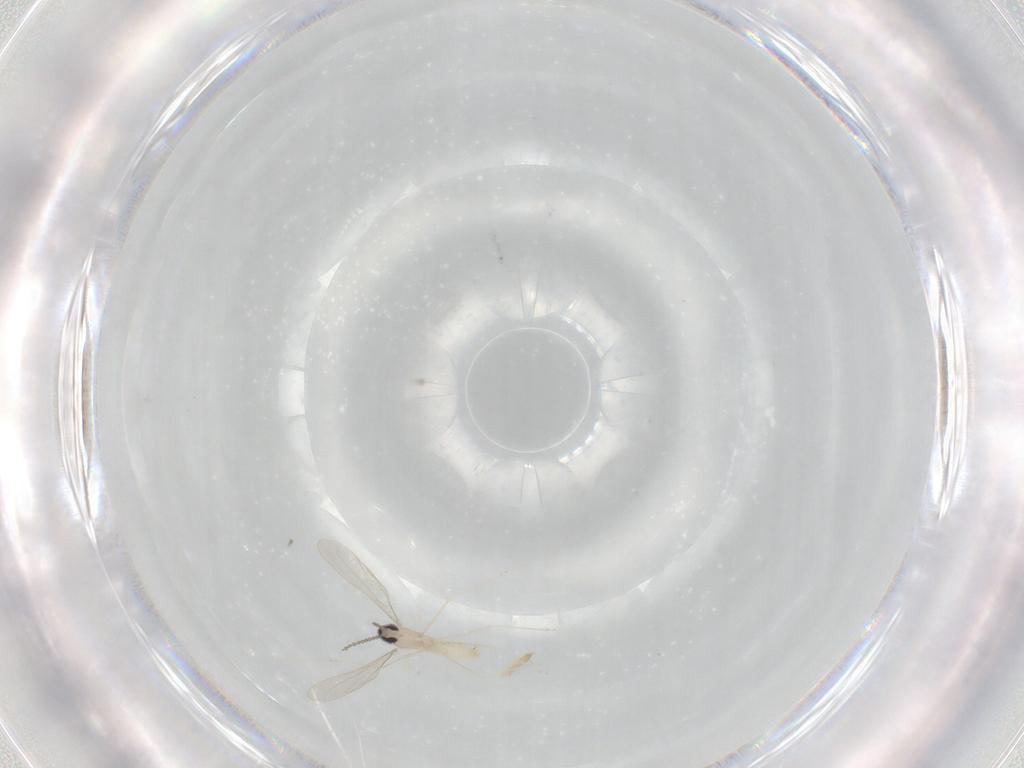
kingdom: Animalia
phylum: Arthropoda
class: Insecta
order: Diptera
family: Cecidomyiidae
